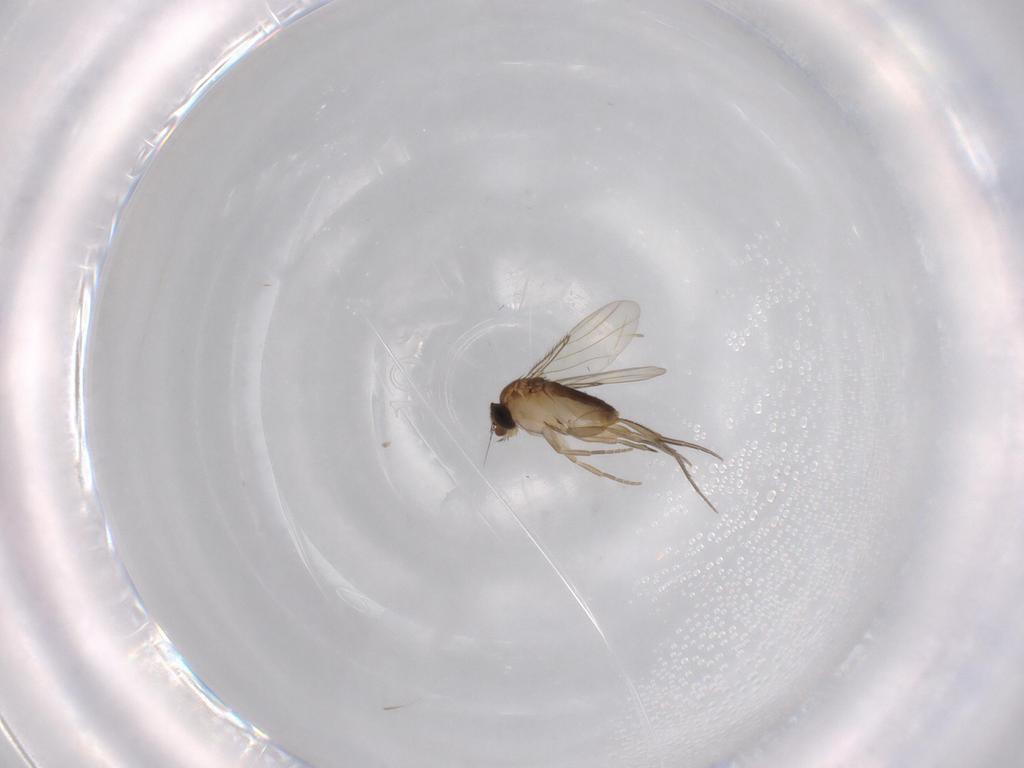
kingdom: Animalia
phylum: Arthropoda
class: Insecta
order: Diptera
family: Phoridae
